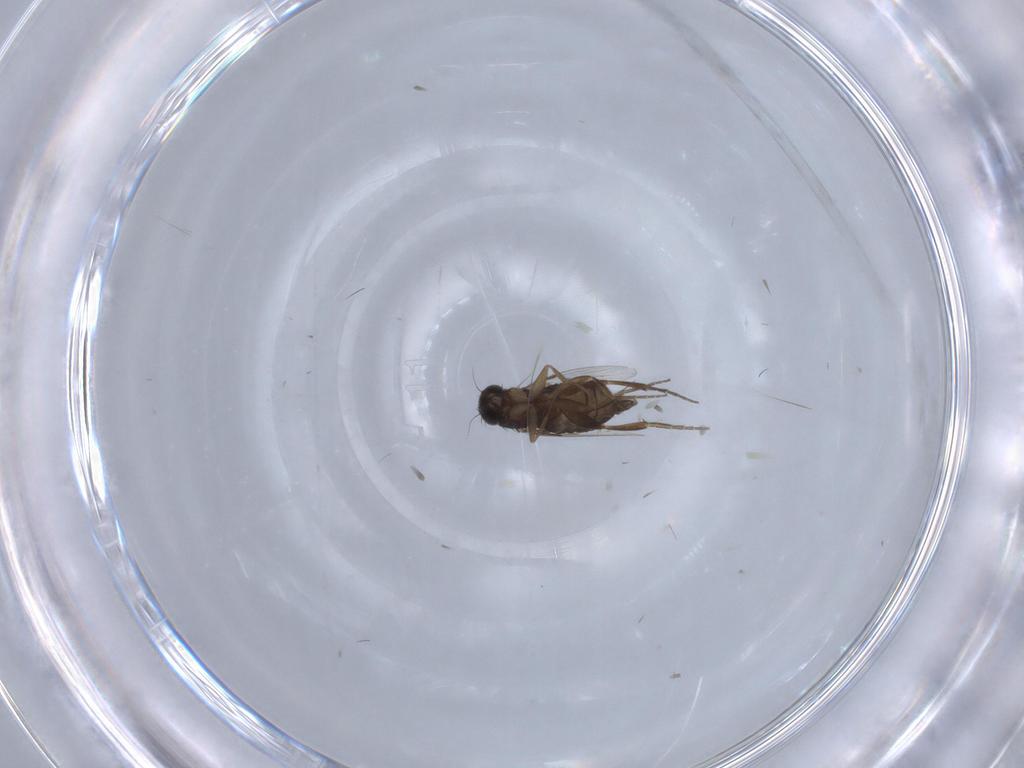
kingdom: Animalia
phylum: Arthropoda
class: Insecta
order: Diptera
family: Phoridae
